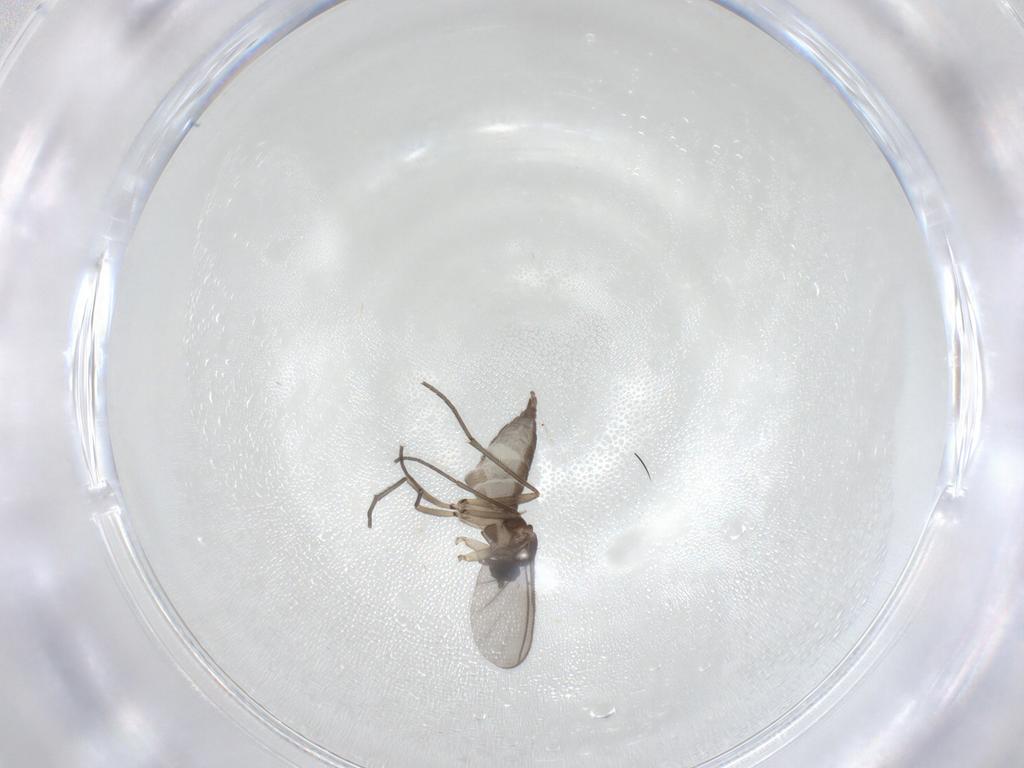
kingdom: Animalia
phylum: Arthropoda
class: Insecta
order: Diptera
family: Sciaridae
